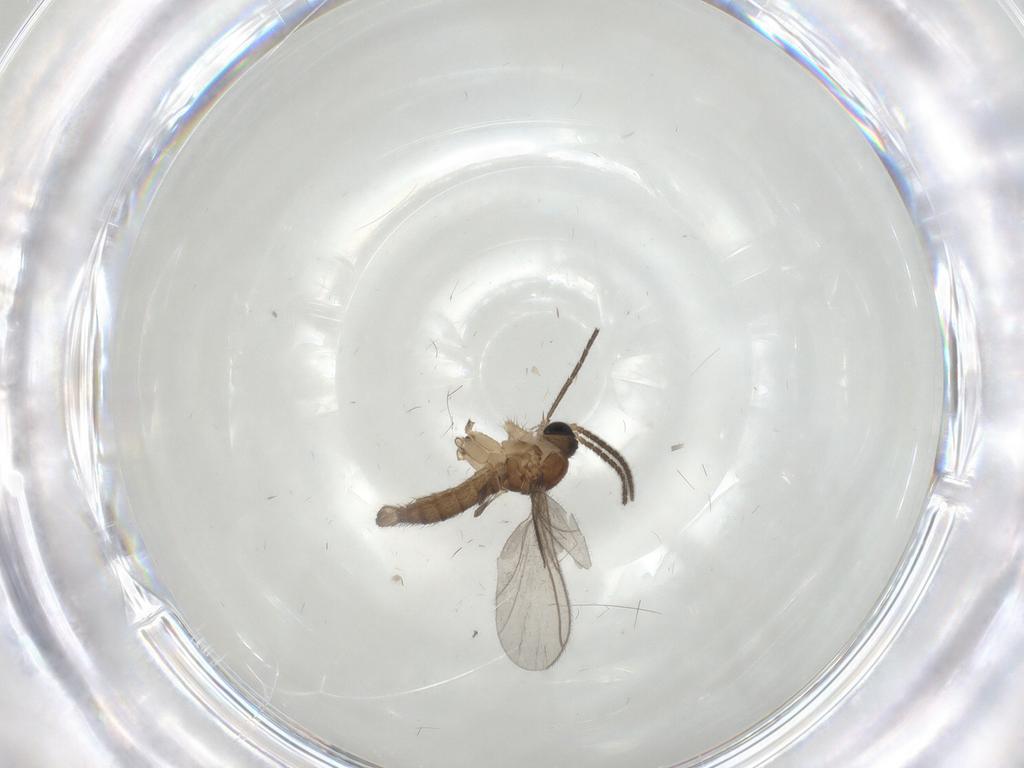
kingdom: Animalia
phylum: Arthropoda
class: Insecta
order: Diptera
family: Sciaridae
